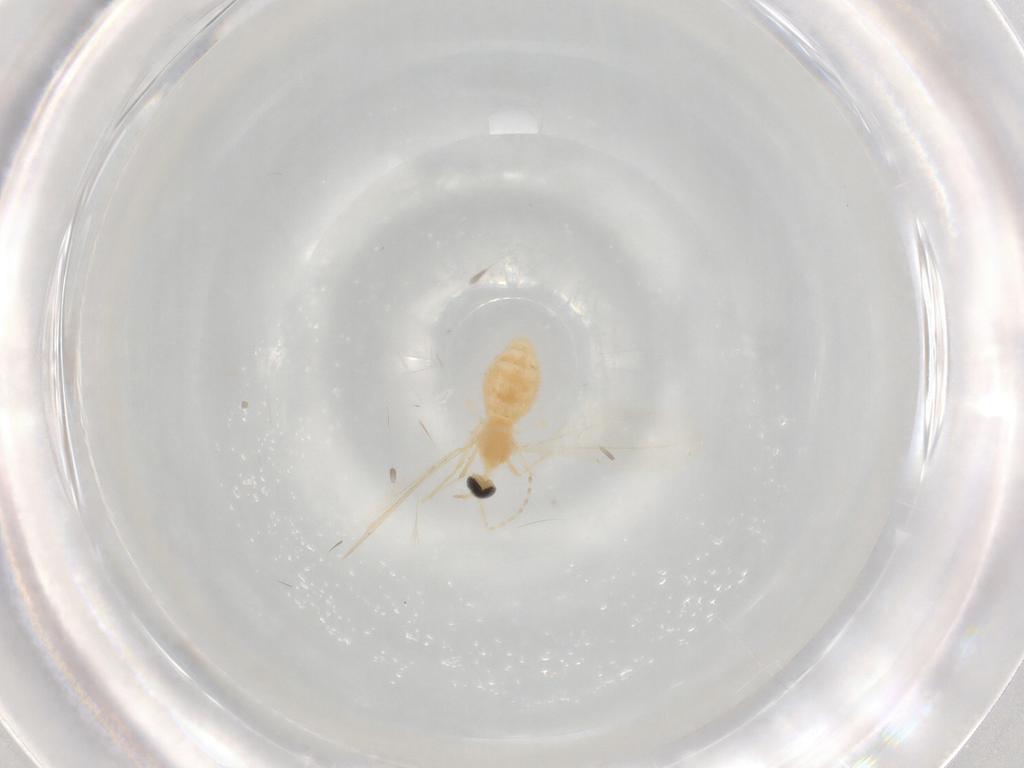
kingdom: Animalia
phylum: Arthropoda
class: Insecta
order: Diptera
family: Cecidomyiidae
